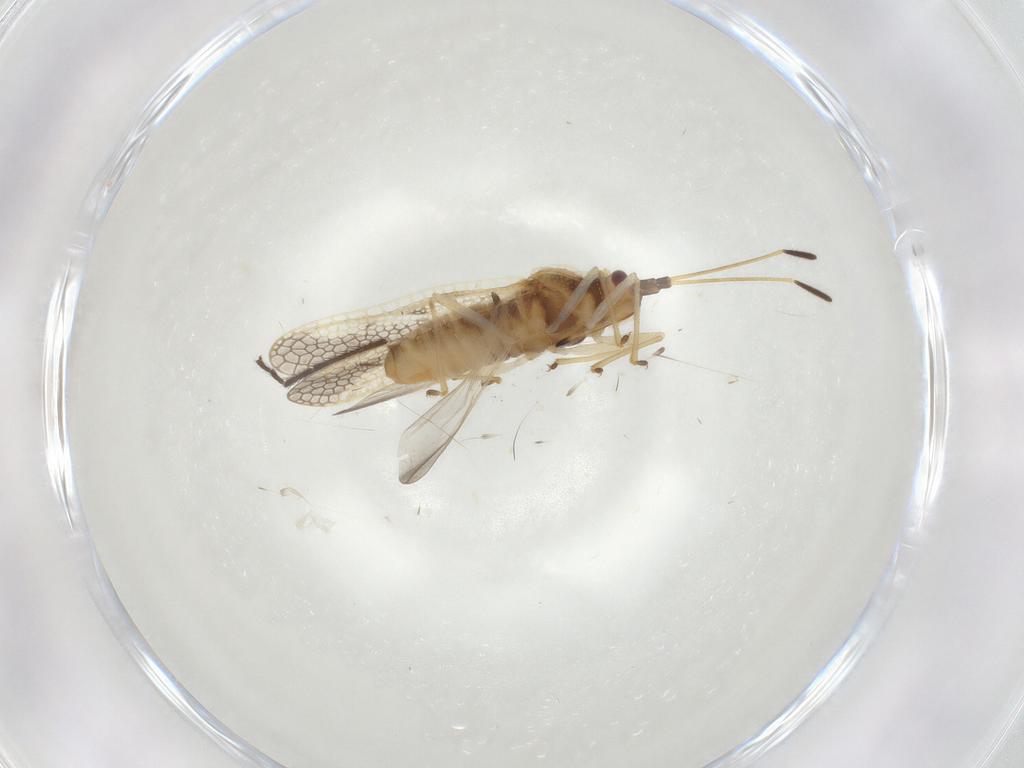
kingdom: Animalia
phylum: Arthropoda
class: Insecta
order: Hemiptera
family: Tingidae
